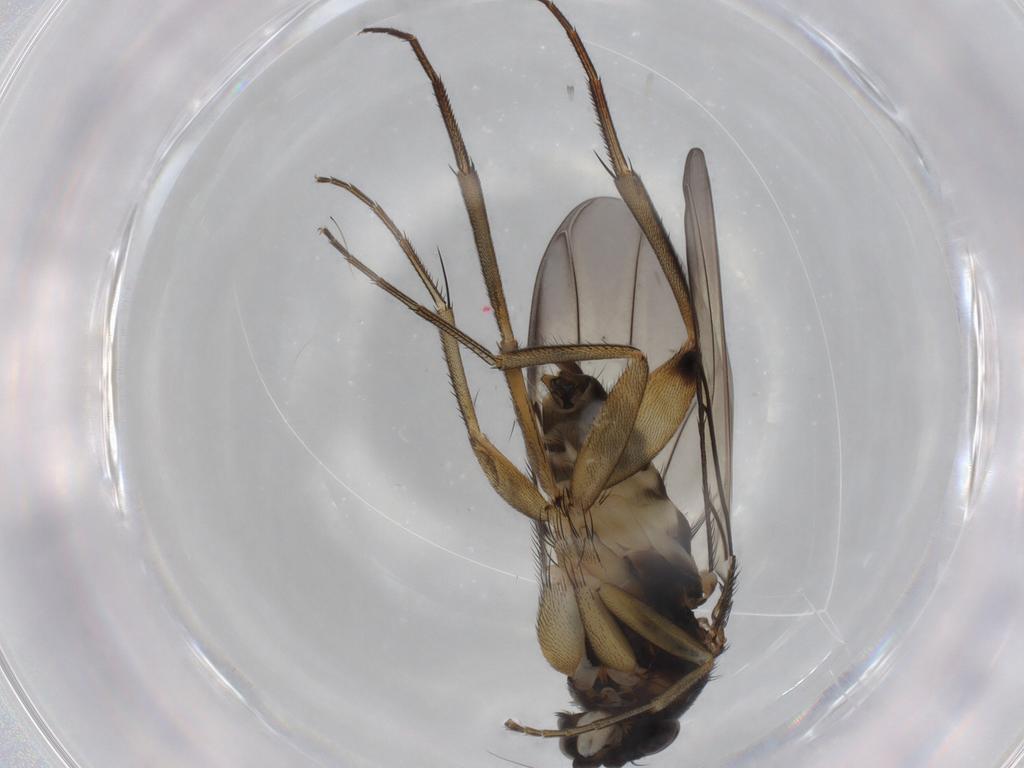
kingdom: Animalia
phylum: Arthropoda
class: Insecta
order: Diptera
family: Phoridae
